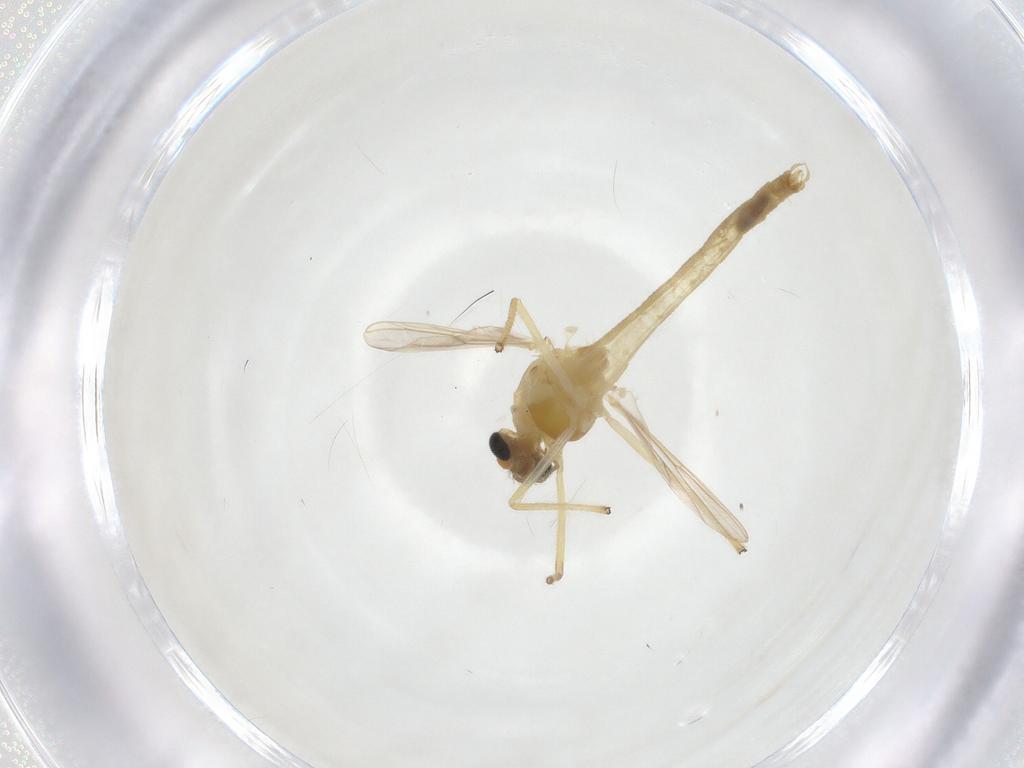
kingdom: Animalia
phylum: Arthropoda
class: Insecta
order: Diptera
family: Chironomidae
